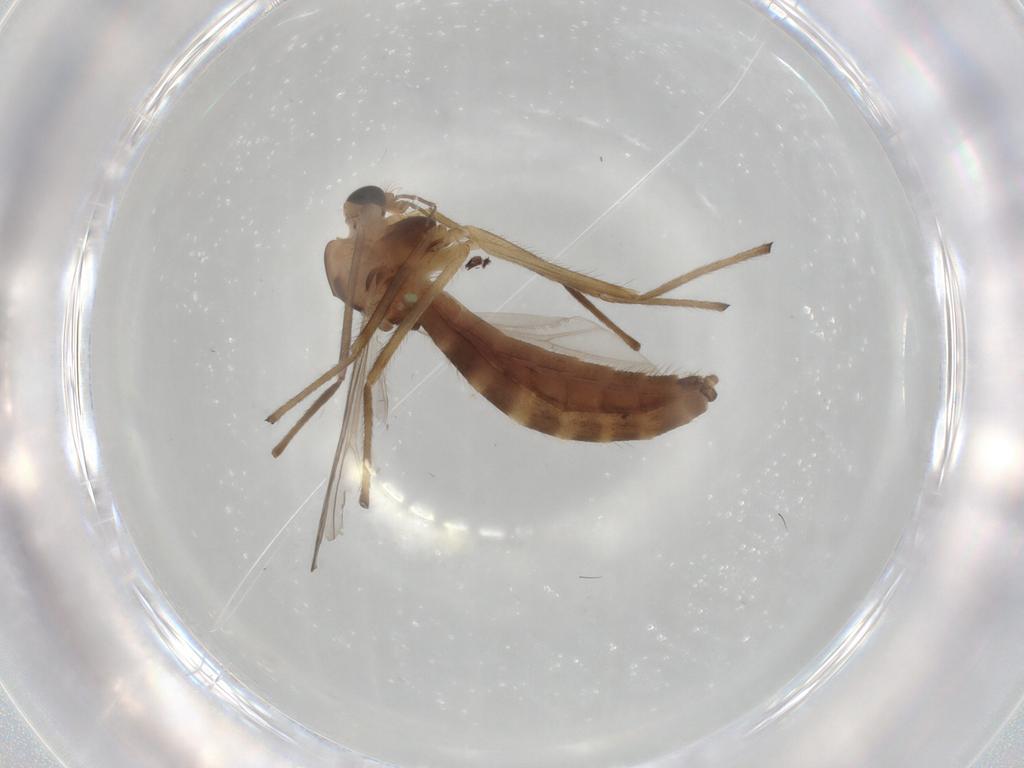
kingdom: Animalia
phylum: Arthropoda
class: Insecta
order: Diptera
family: Chironomidae
